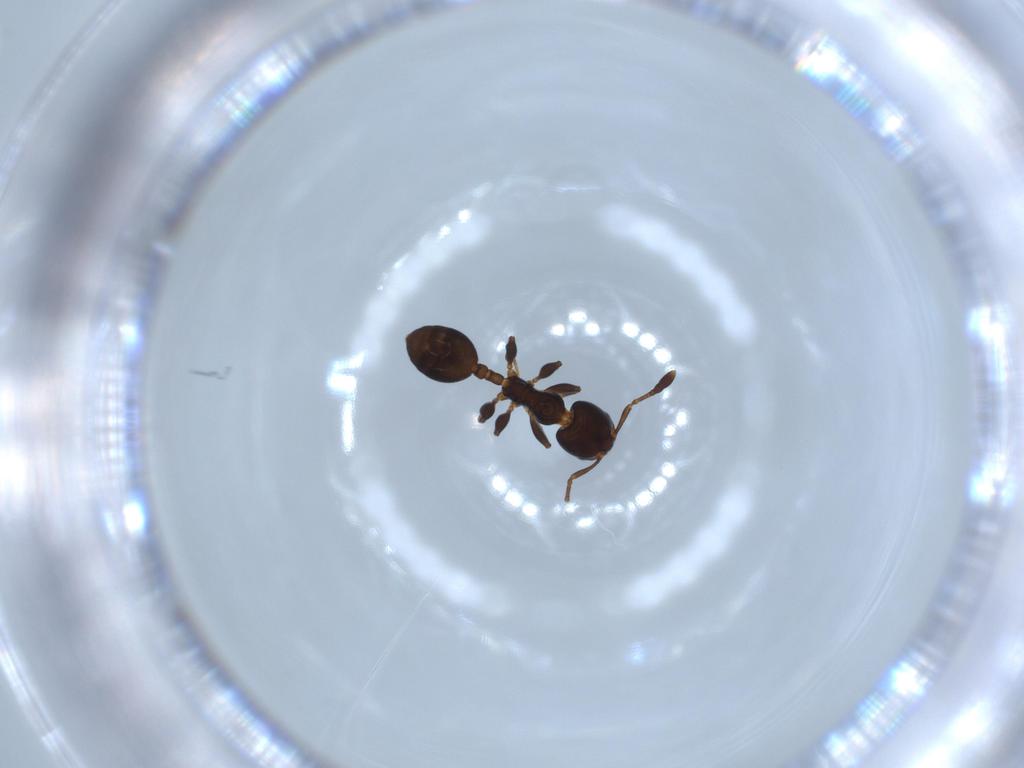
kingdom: Animalia
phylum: Arthropoda
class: Insecta
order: Hymenoptera
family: Formicidae
